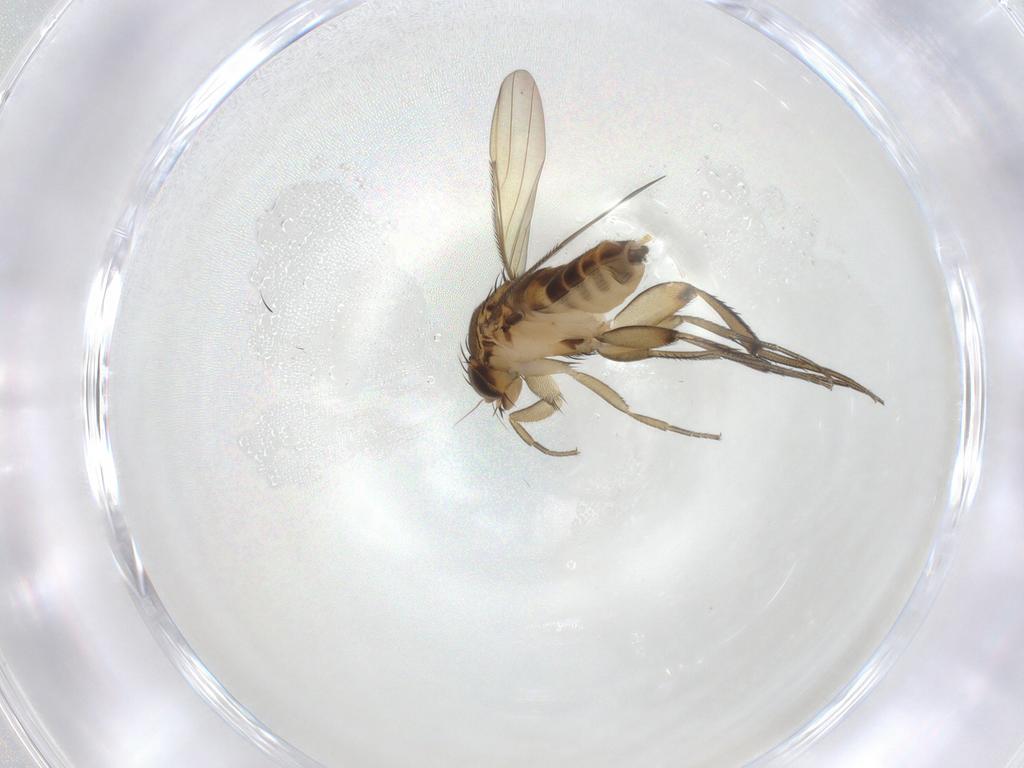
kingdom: Animalia
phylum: Arthropoda
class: Insecta
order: Diptera
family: Phoridae
